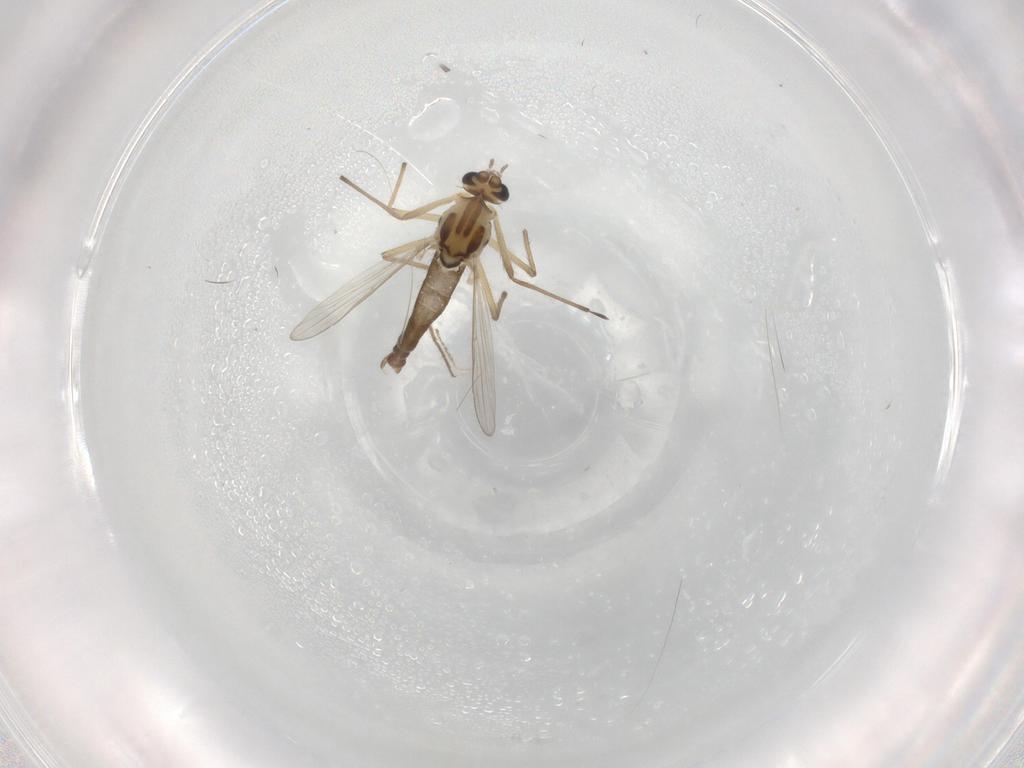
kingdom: Animalia
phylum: Arthropoda
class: Insecta
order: Diptera
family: Chironomidae
